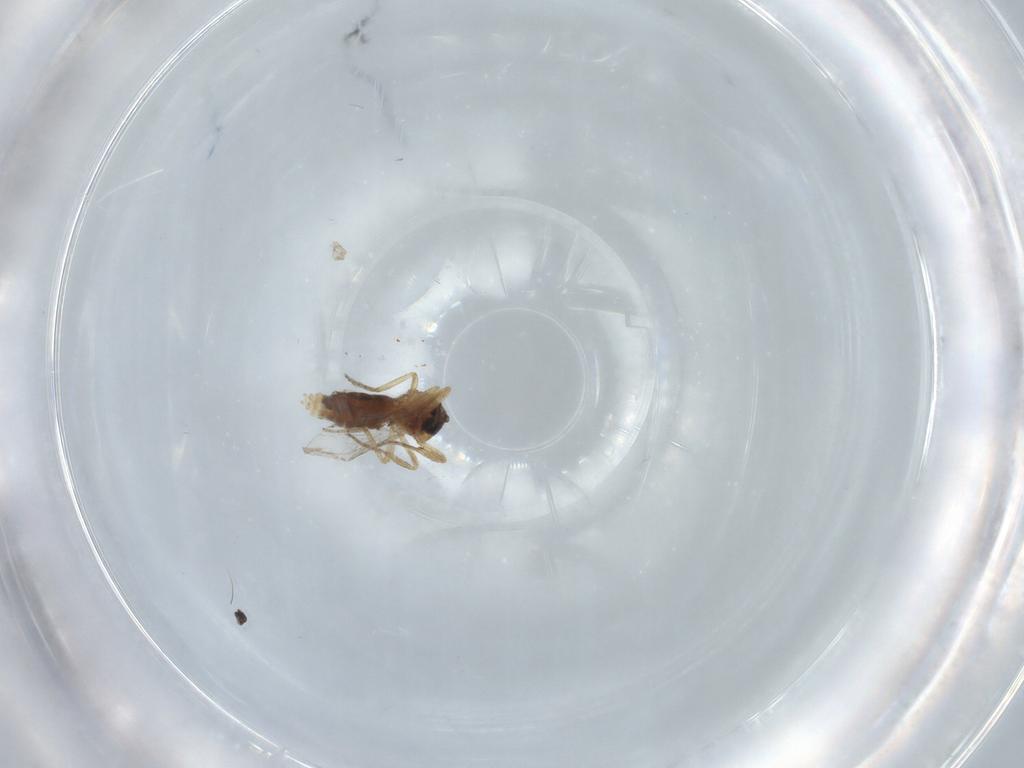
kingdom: Animalia
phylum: Arthropoda
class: Insecta
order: Diptera
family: Ceratopogonidae
